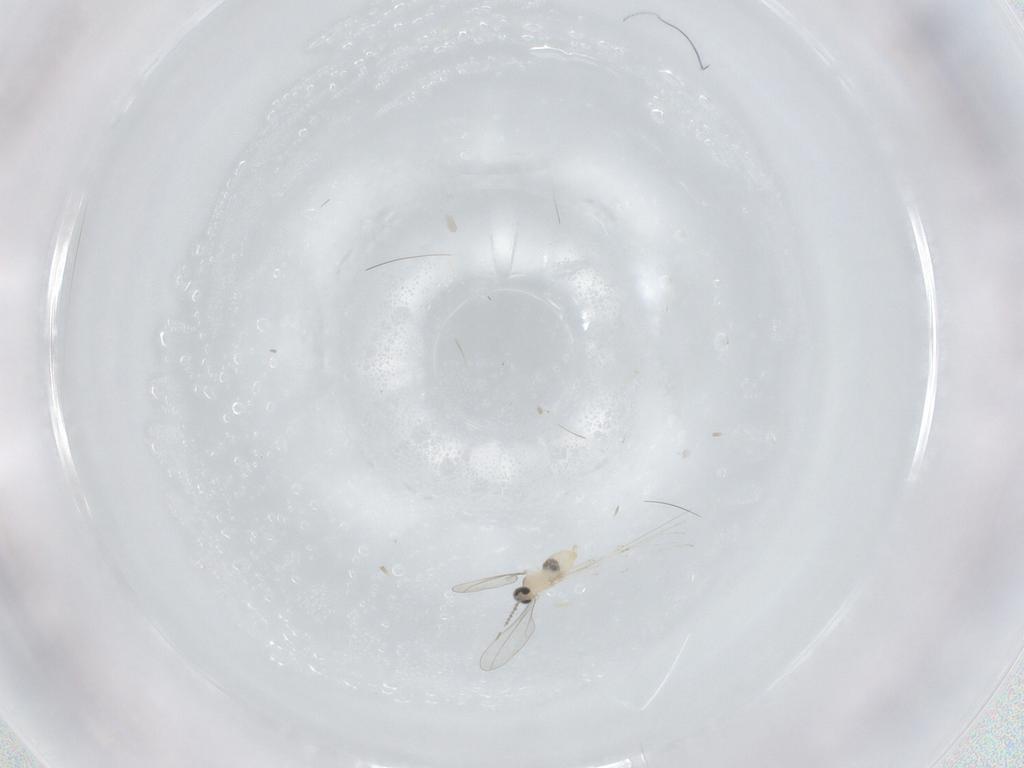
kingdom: Animalia
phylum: Arthropoda
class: Insecta
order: Diptera
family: Cecidomyiidae
